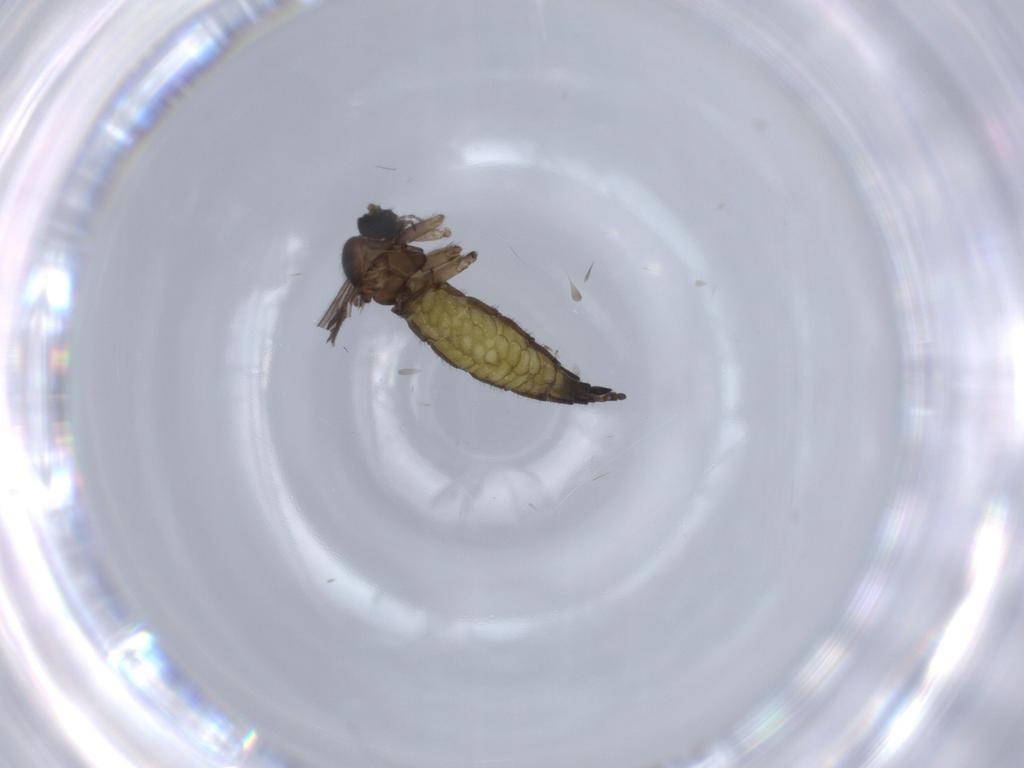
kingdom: Animalia
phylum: Arthropoda
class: Insecta
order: Diptera
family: Sciaridae
